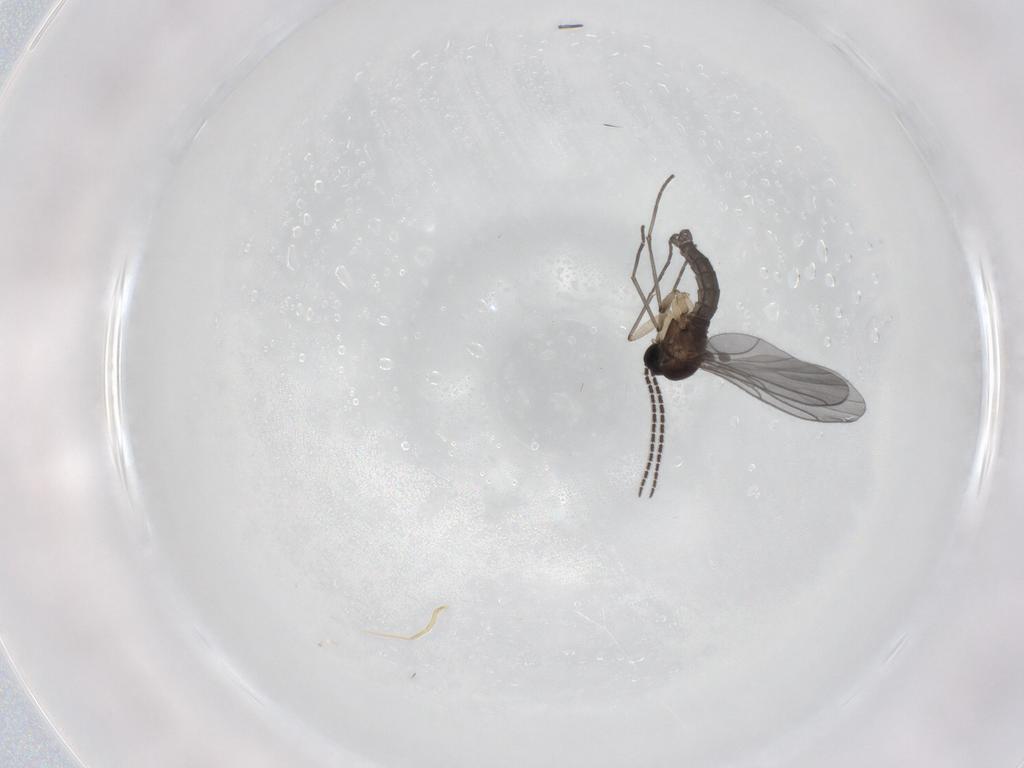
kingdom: Animalia
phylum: Arthropoda
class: Insecta
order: Diptera
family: Sciaridae
